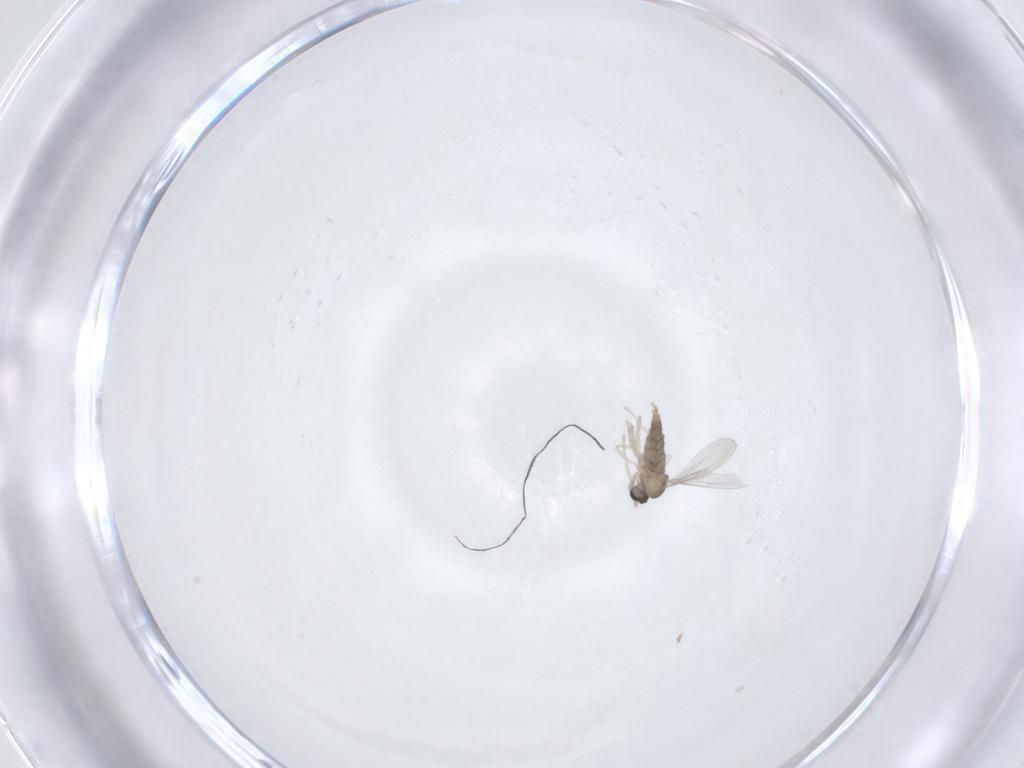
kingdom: Animalia
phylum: Arthropoda
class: Insecta
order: Diptera
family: Cecidomyiidae
